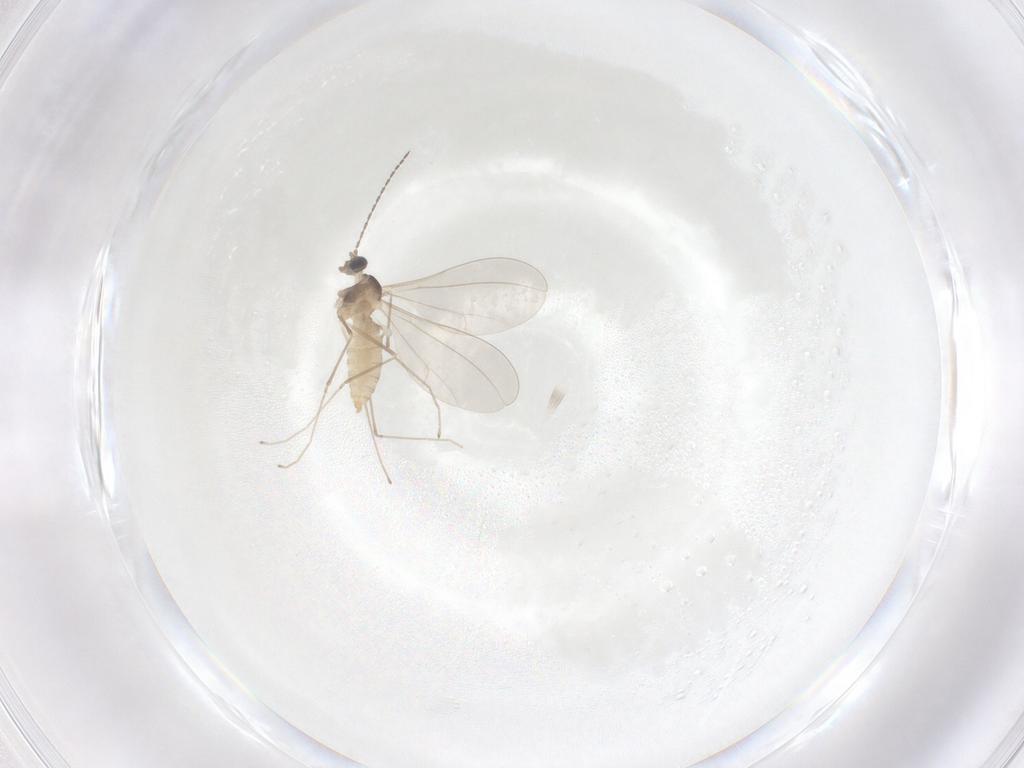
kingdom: Animalia
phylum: Arthropoda
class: Insecta
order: Diptera
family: Cecidomyiidae
